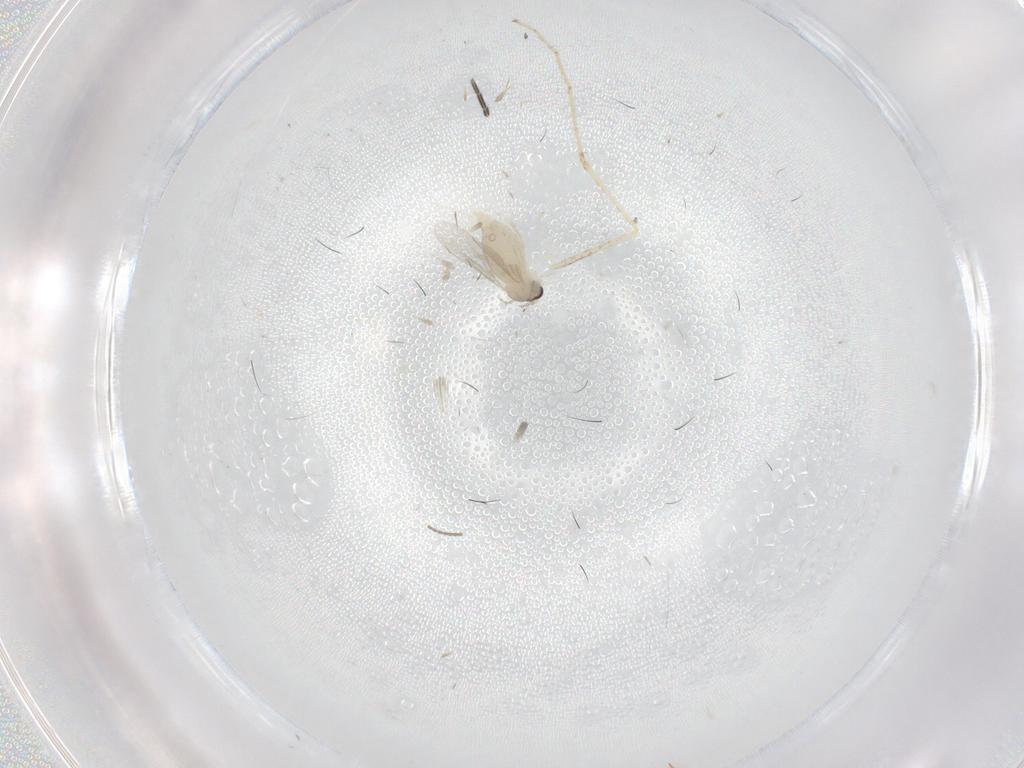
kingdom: Animalia
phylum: Arthropoda
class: Insecta
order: Diptera
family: Cecidomyiidae
